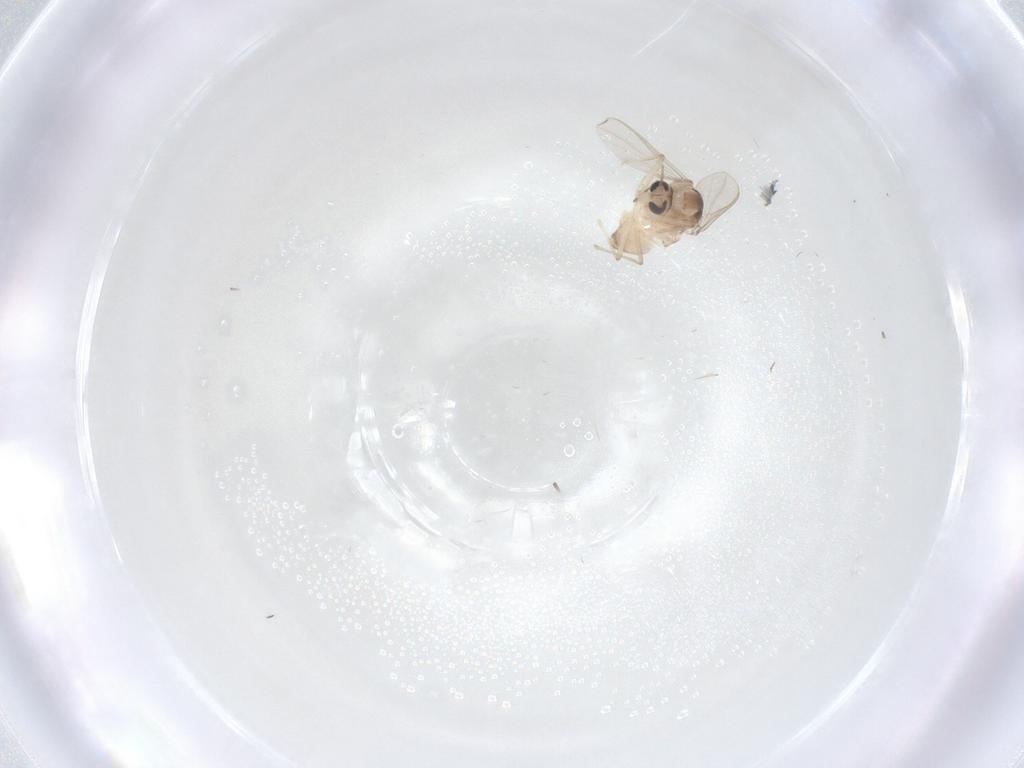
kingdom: Animalia
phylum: Arthropoda
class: Insecta
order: Diptera
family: Chironomidae
